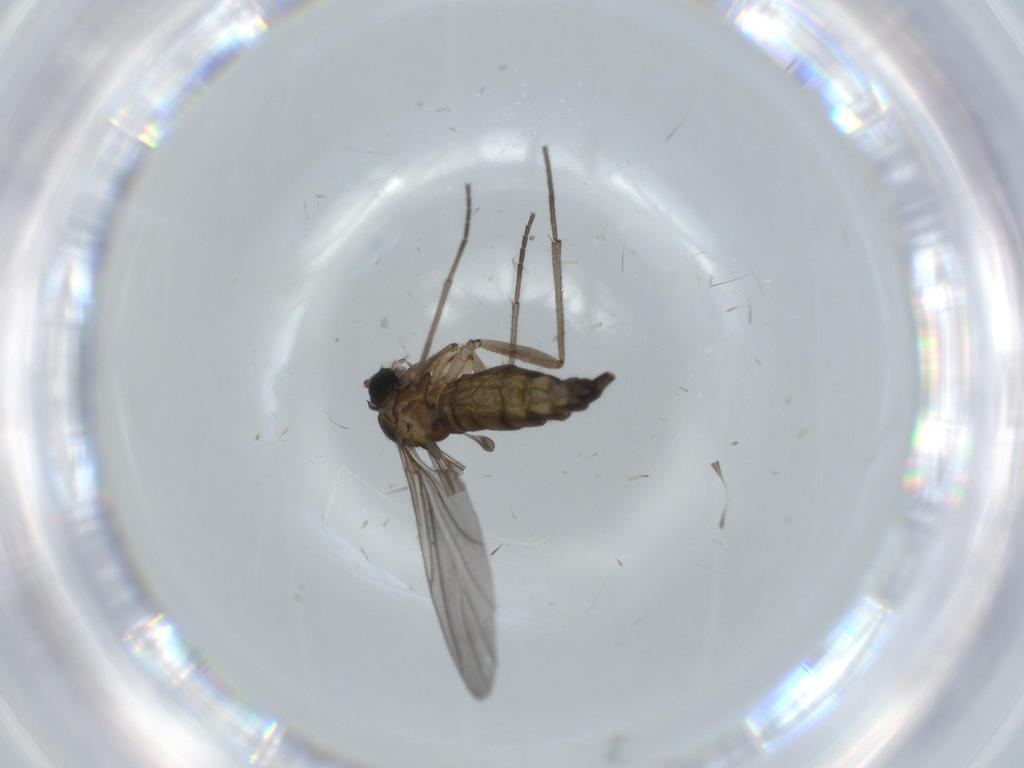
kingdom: Animalia
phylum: Arthropoda
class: Insecta
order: Diptera
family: Sciaridae
